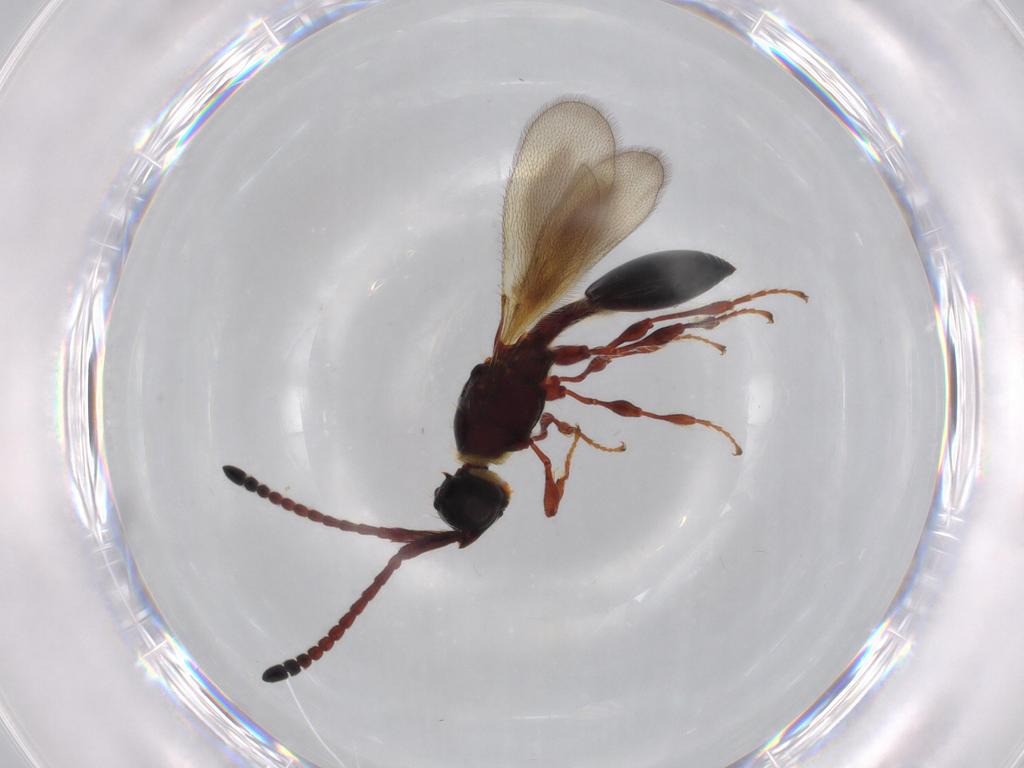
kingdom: Animalia
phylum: Arthropoda
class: Insecta
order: Hymenoptera
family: Diapriidae
